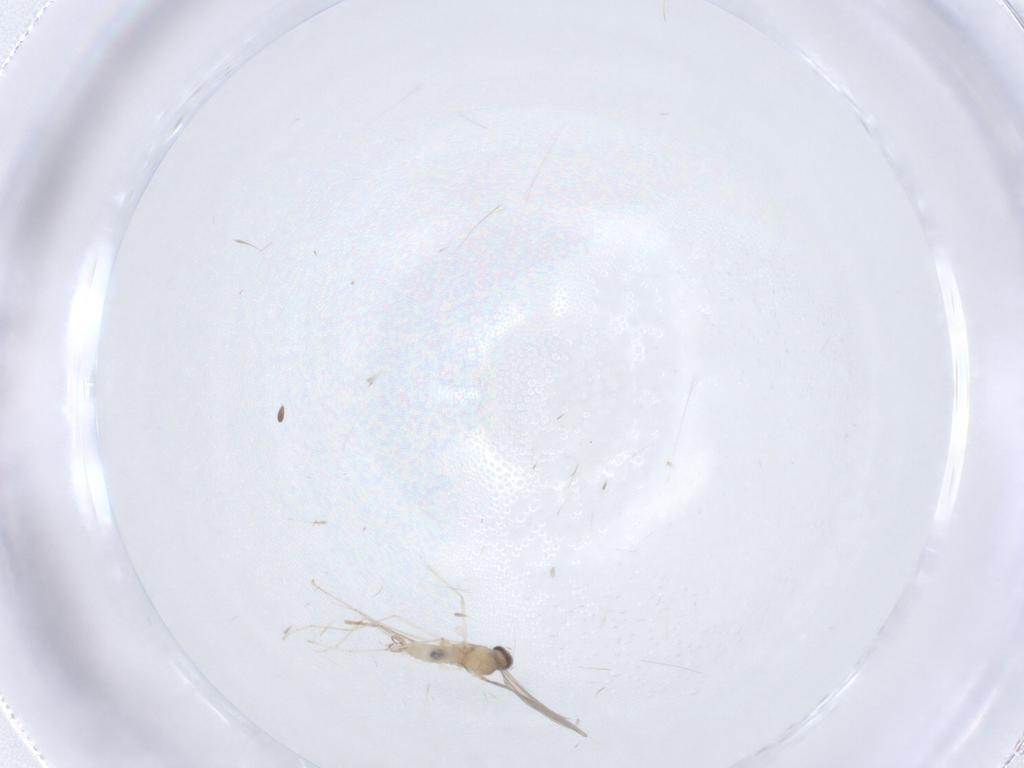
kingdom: Animalia
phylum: Arthropoda
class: Insecta
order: Diptera
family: Cecidomyiidae
